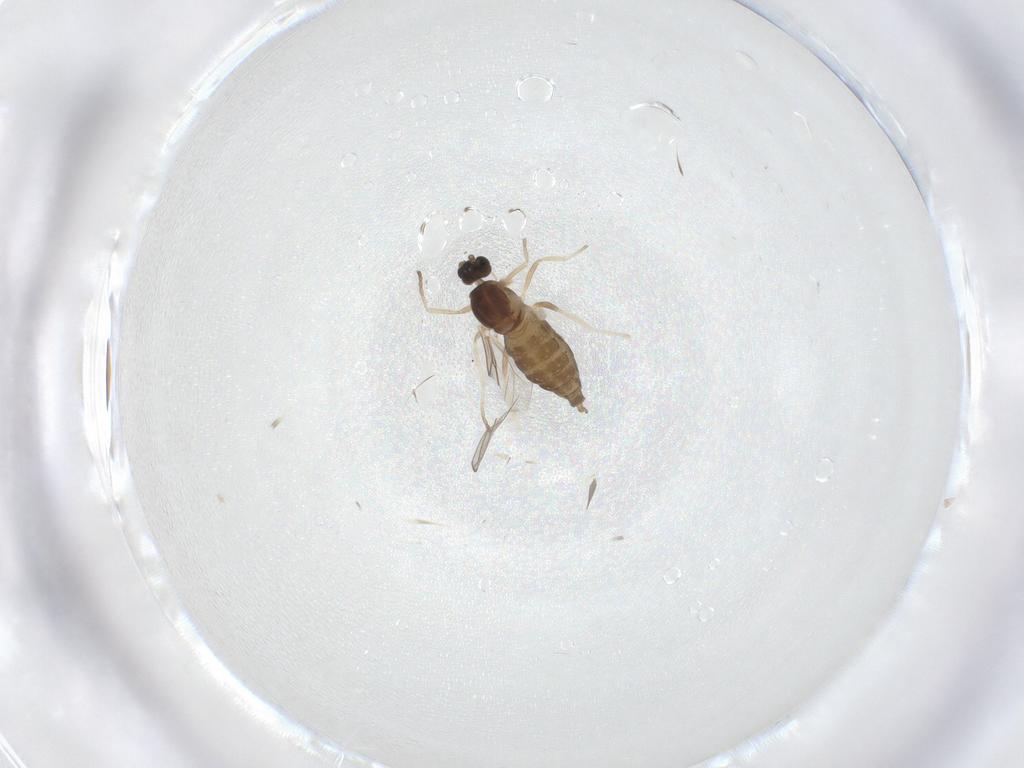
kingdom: Animalia
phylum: Arthropoda
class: Insecta
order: Diptera
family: Cecidomyiidae
